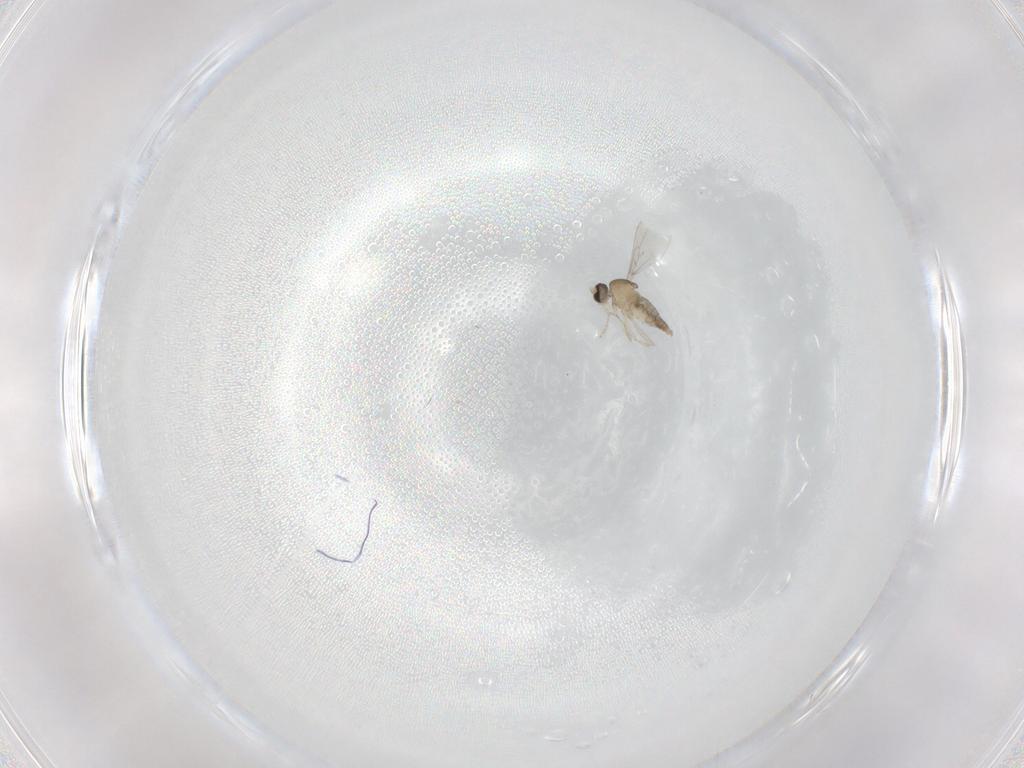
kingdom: Animalia
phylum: Arthropoda
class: Insecta
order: Diptera
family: Cecidomyiidae
